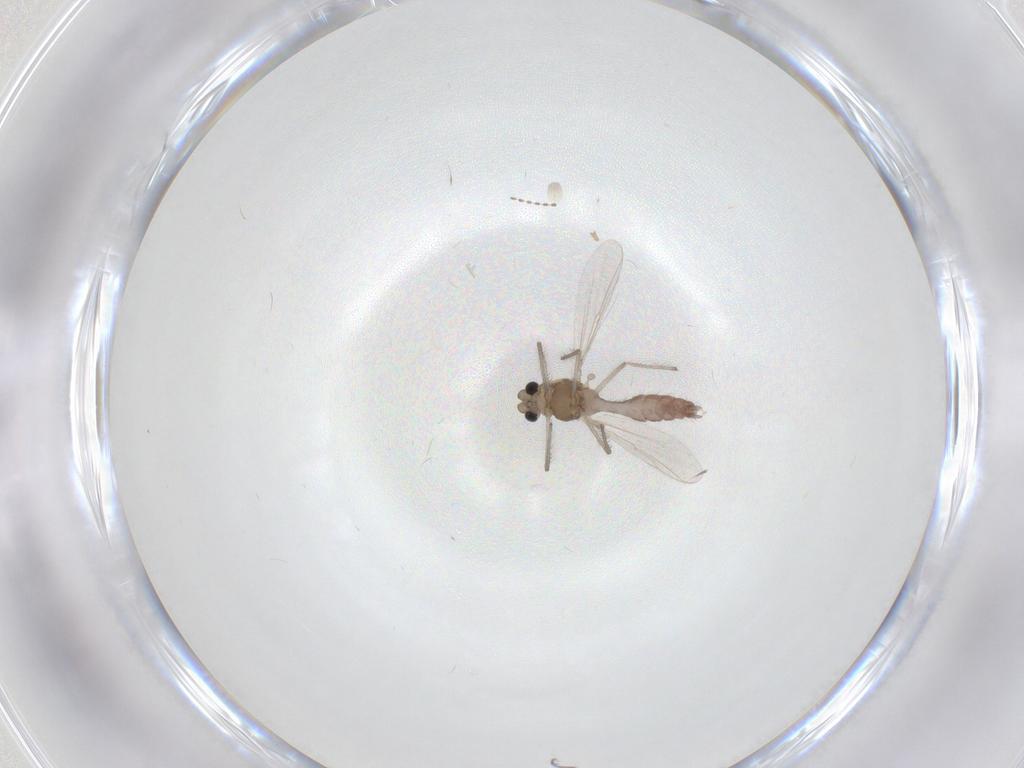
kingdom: Animalia
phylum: Arthropoda
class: Insecta
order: Diptera
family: Chironomidae
